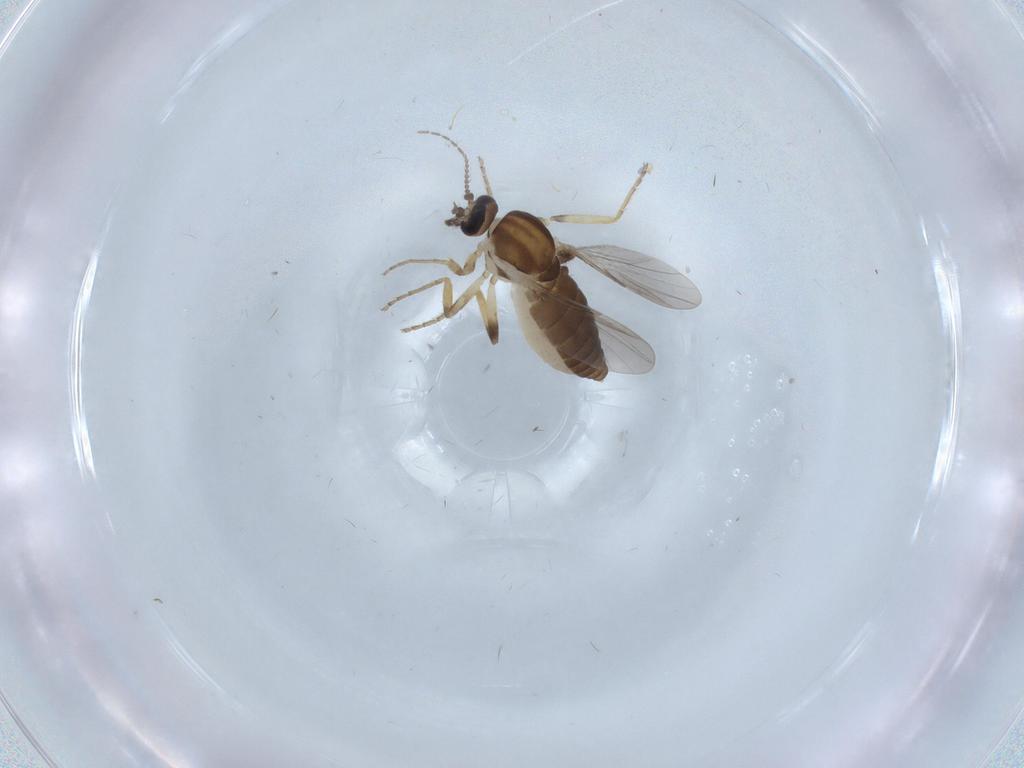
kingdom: Animalia
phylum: Arthropoda
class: Insecta
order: Diptera
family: Ceratopogonidae
